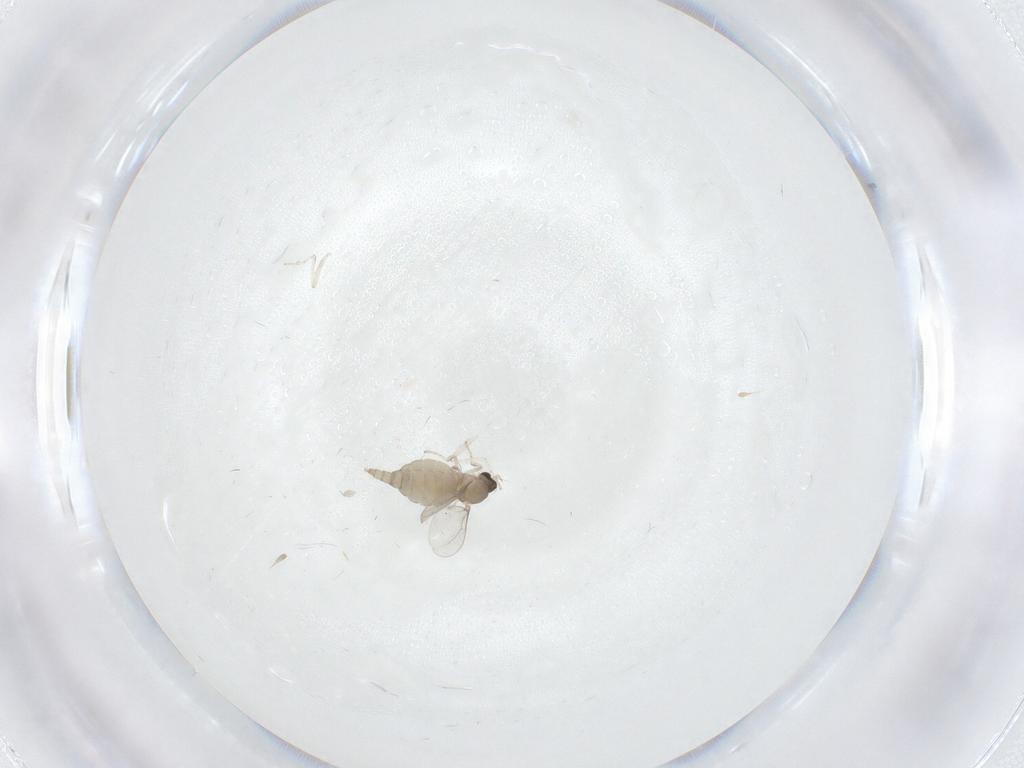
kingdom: Animalia
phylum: Arthropoda
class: Insecta
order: Diptera
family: Cecidomyiidae
